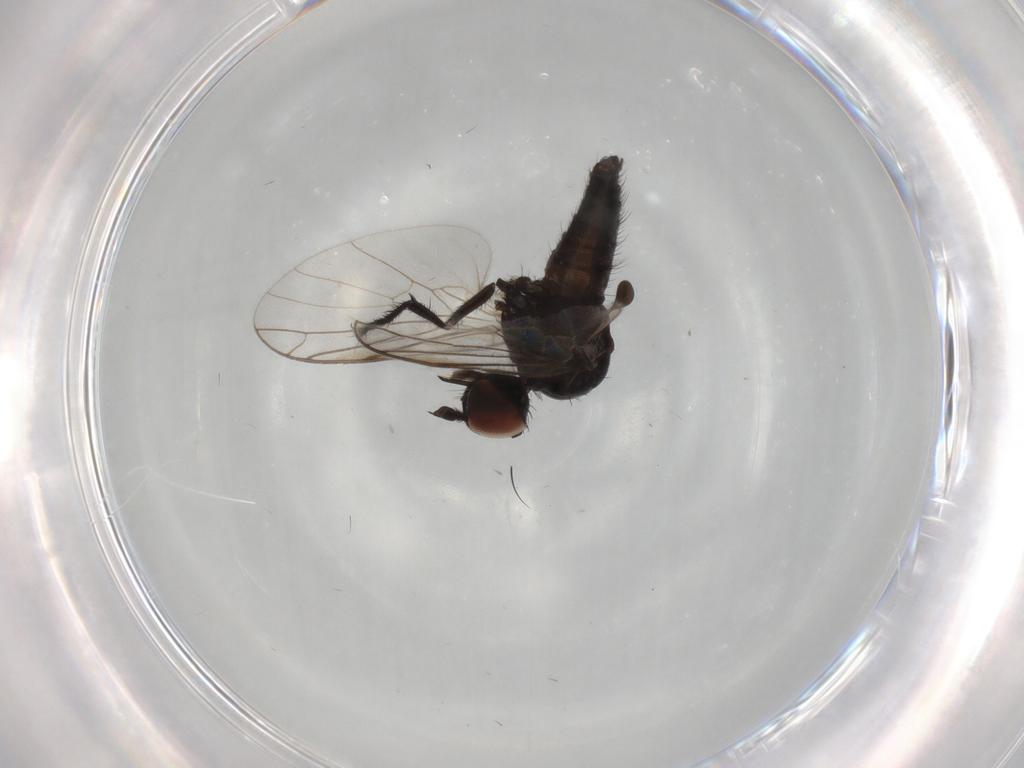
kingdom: Animalia
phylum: Arthropoda
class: Insecta
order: Diptera
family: Empididae
